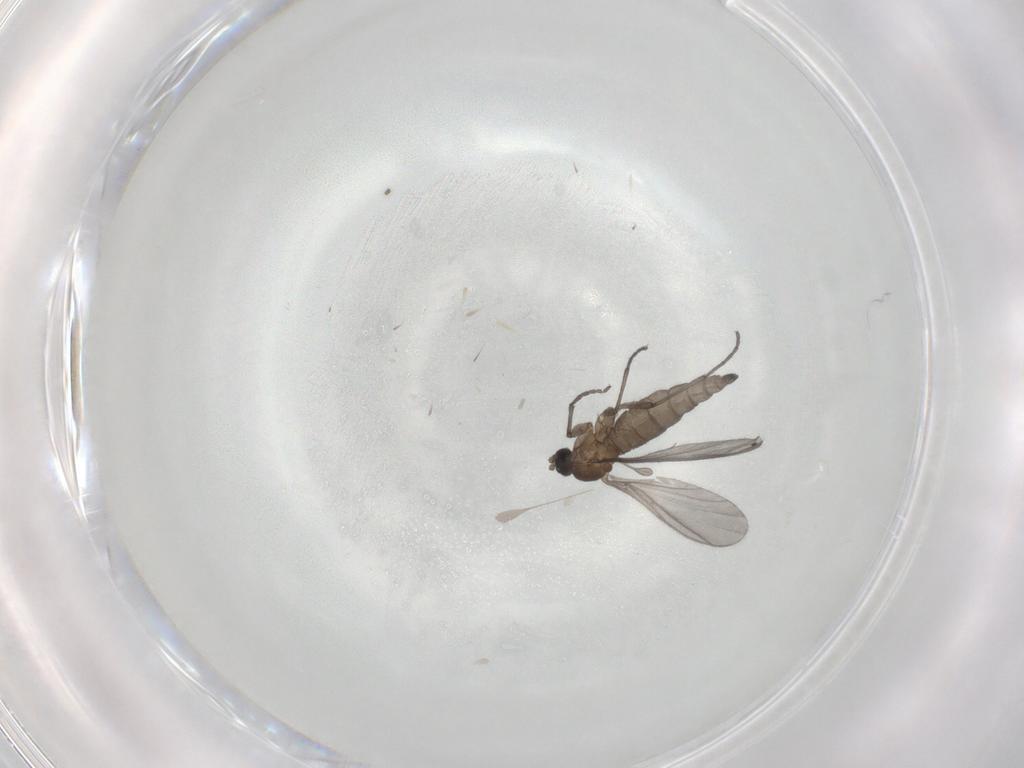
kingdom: Animalia
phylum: Arthropoda
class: Insecta
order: Diptera
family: Sciaridae
